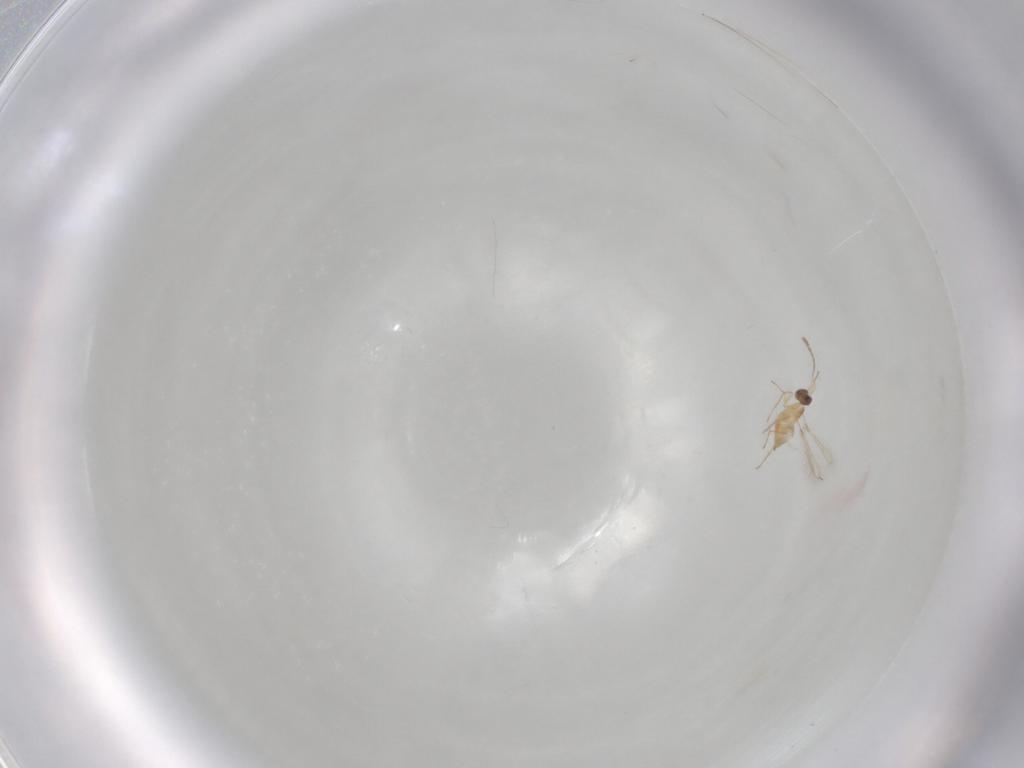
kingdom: Animalia
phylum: Arthropoda
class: Insecta
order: Hymenoptera
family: Mymaridae
